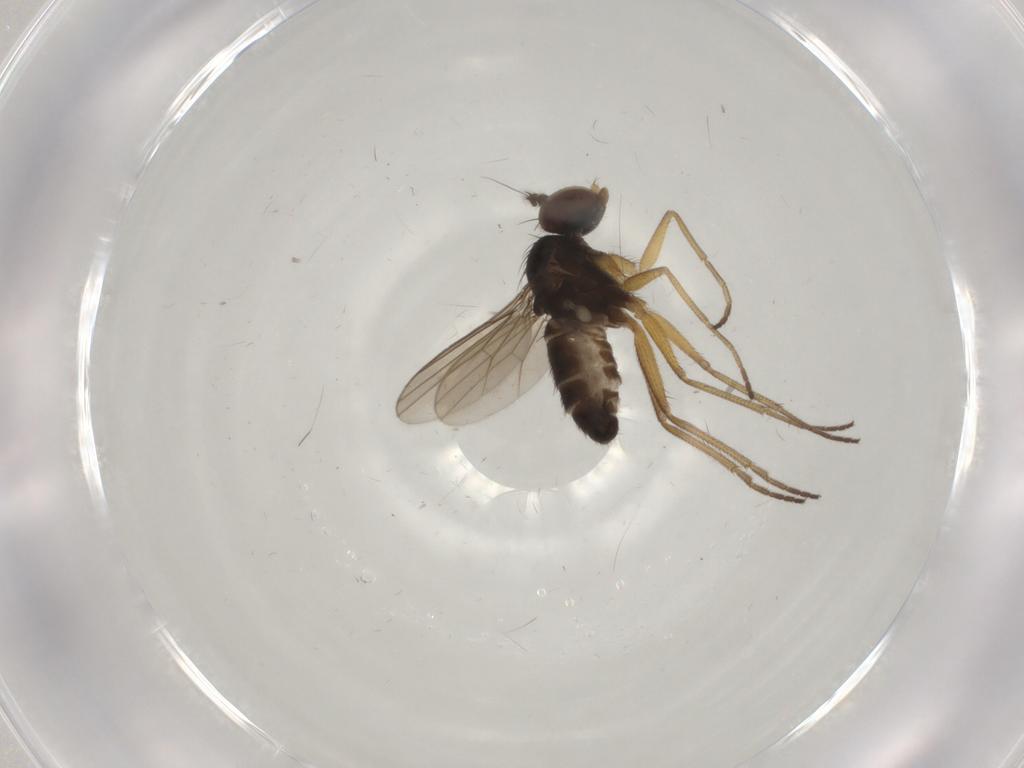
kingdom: Animalia
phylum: Arthropoda
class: Insecta
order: Diptera
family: Dolichopodidae
